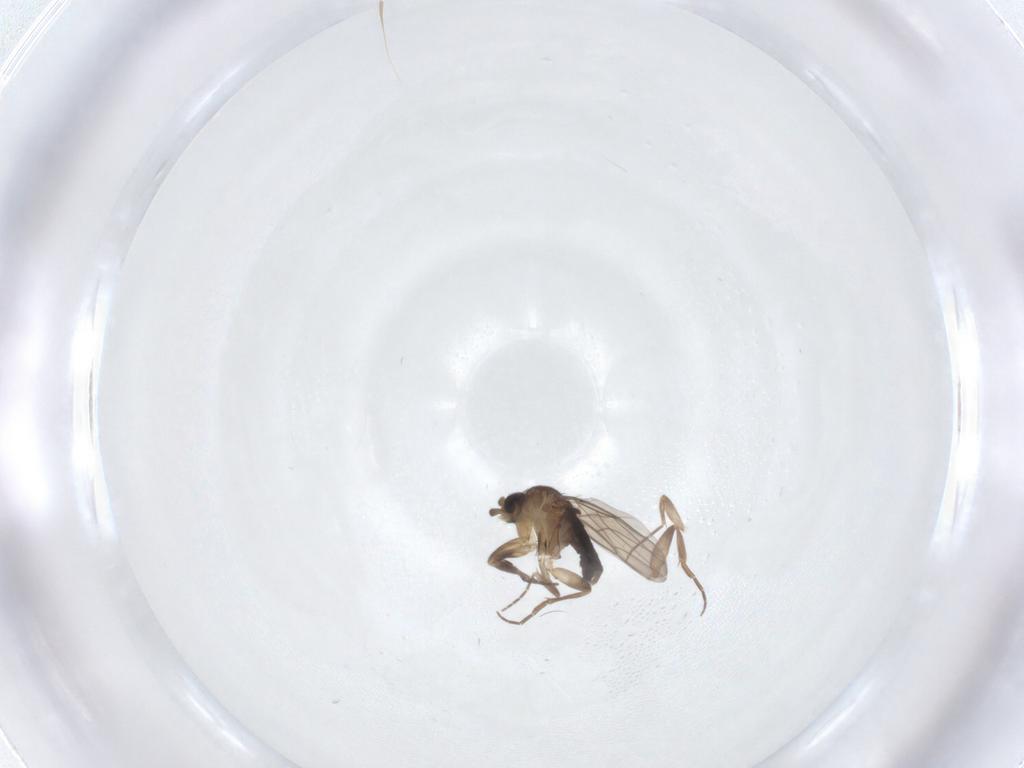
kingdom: Animalia
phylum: Arthropoda
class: Insecta
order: Diptera
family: Phoridae
